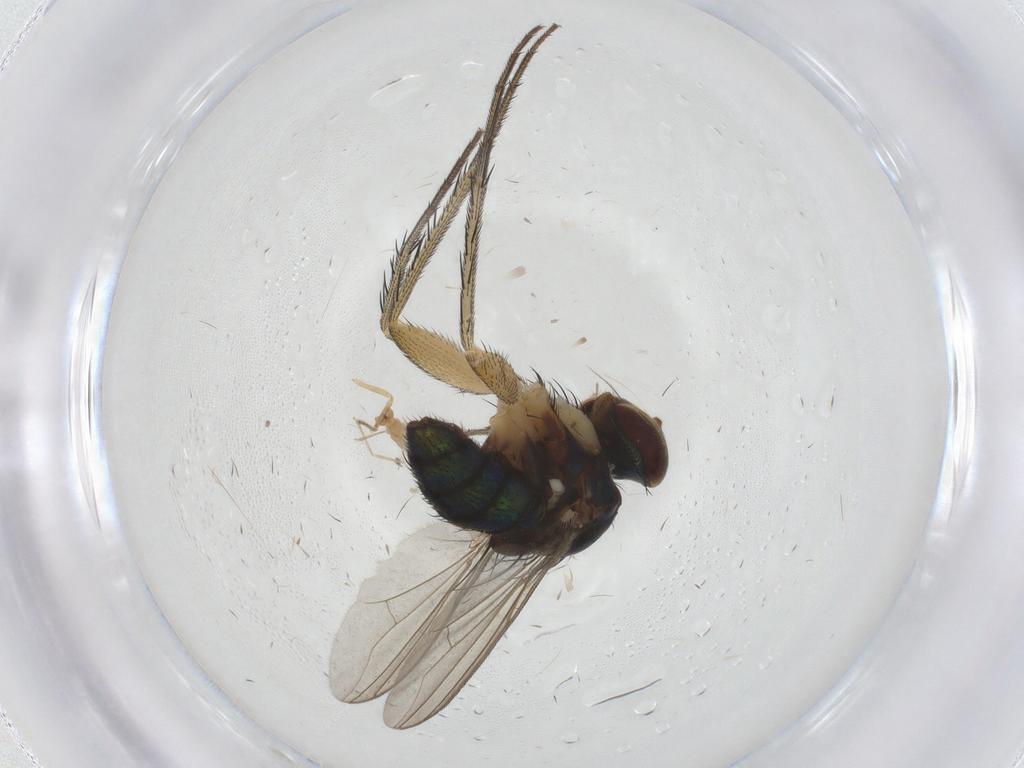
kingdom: Animalia
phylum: Arthropoda
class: Insecta
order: Diptera
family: Dolichopodidae
